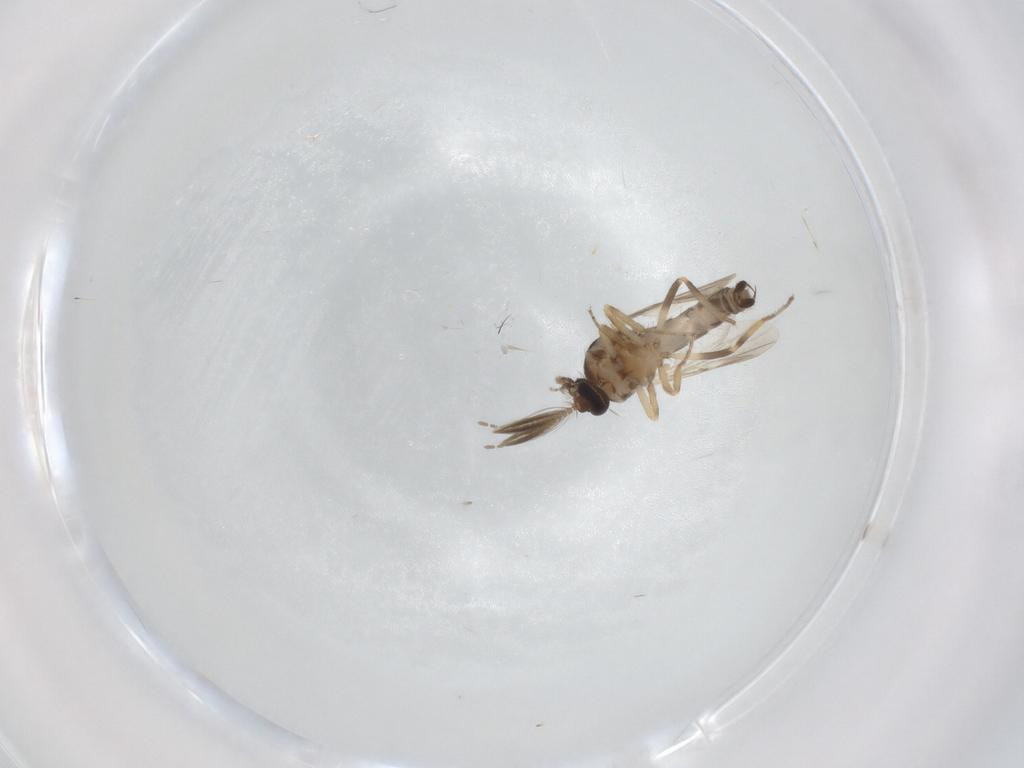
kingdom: Animalia
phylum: Arthropoda
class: Insecta
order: Diptera
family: Ceratopogonidae
